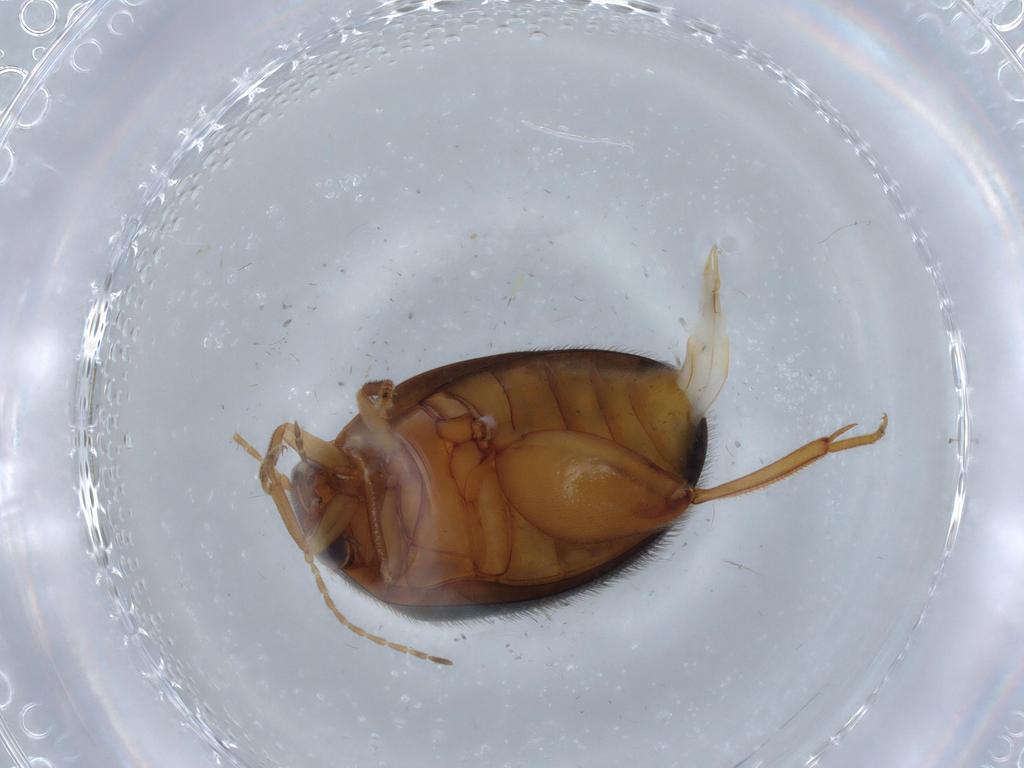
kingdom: Animalia
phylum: Arthropoda
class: Insecta
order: Coleoptera
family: Scirtidae
